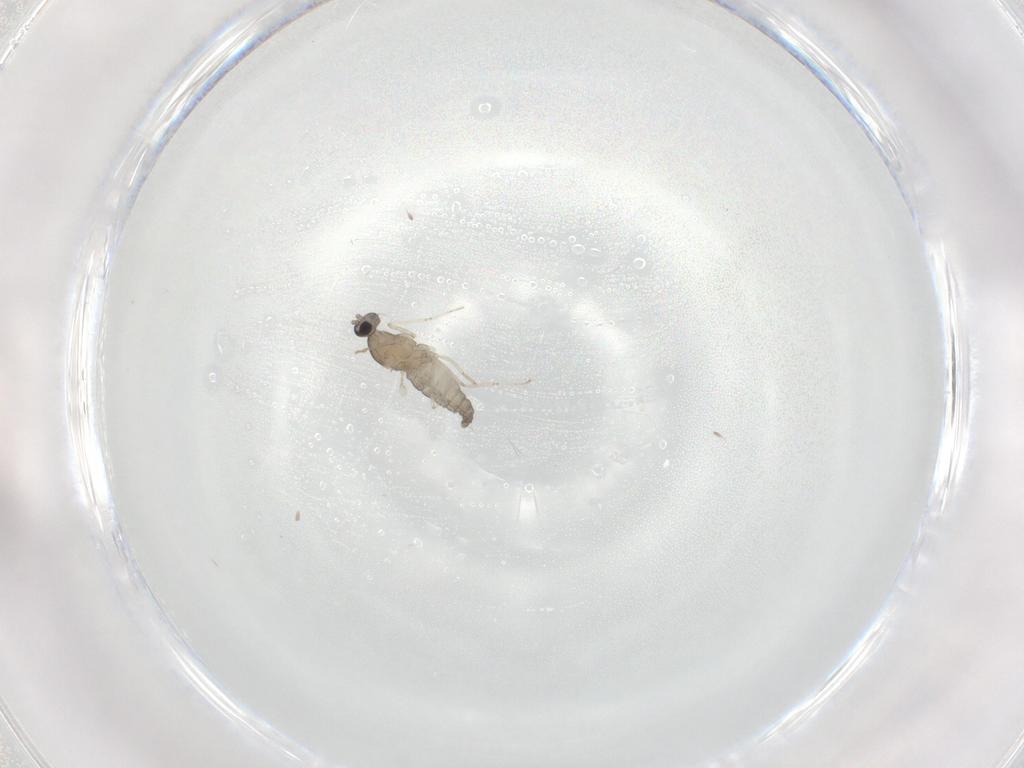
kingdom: Animalia
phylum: Arthropoda
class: Insecta
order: Diptera
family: Cecidomyiidae
